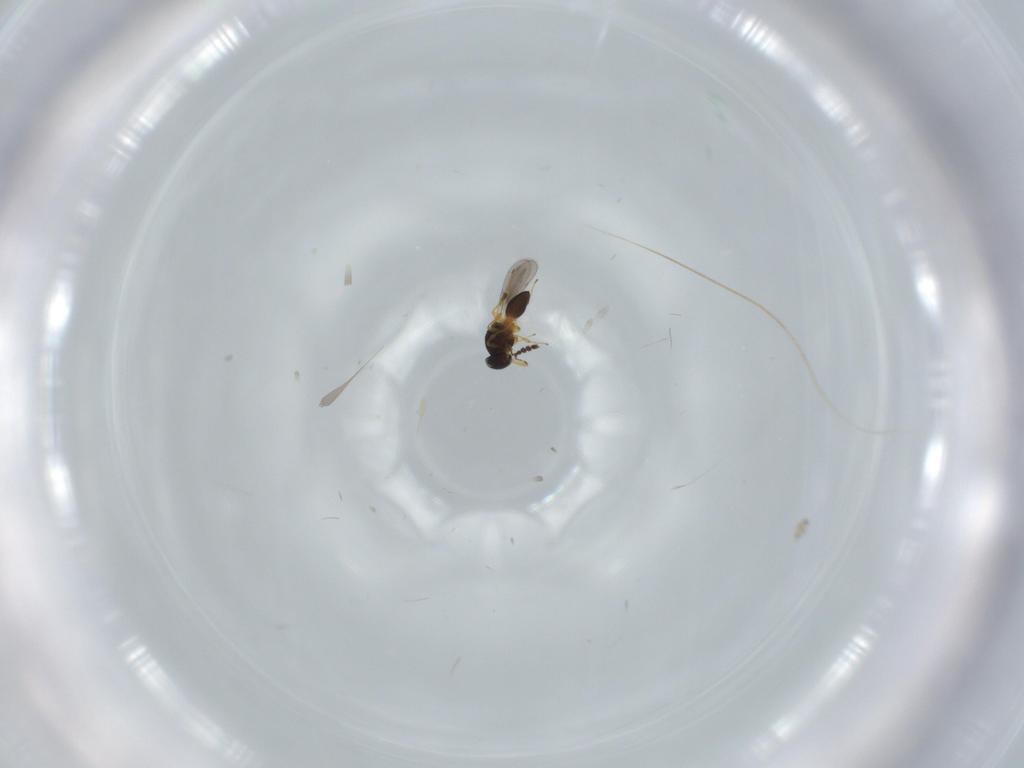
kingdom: Animalia
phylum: Arthropoda
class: Insecta
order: Hymenoptera
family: Platygastridae
